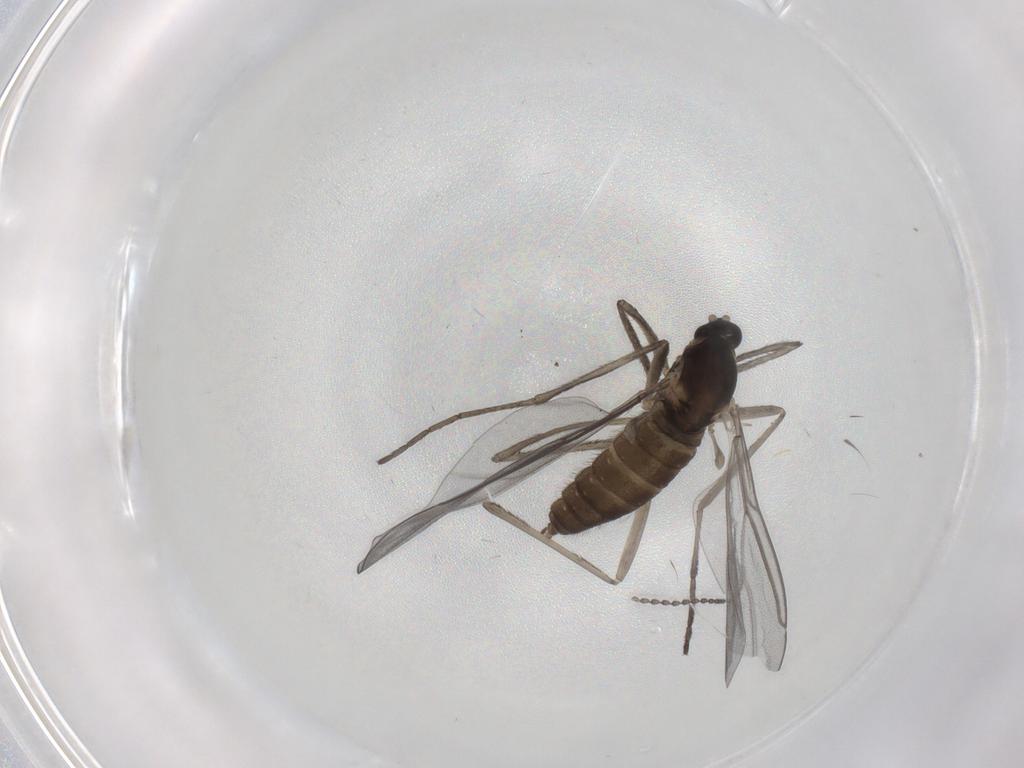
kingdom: Animalia
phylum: Arthropoda
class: Insecta
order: Diptera
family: Cecidomyiidae
